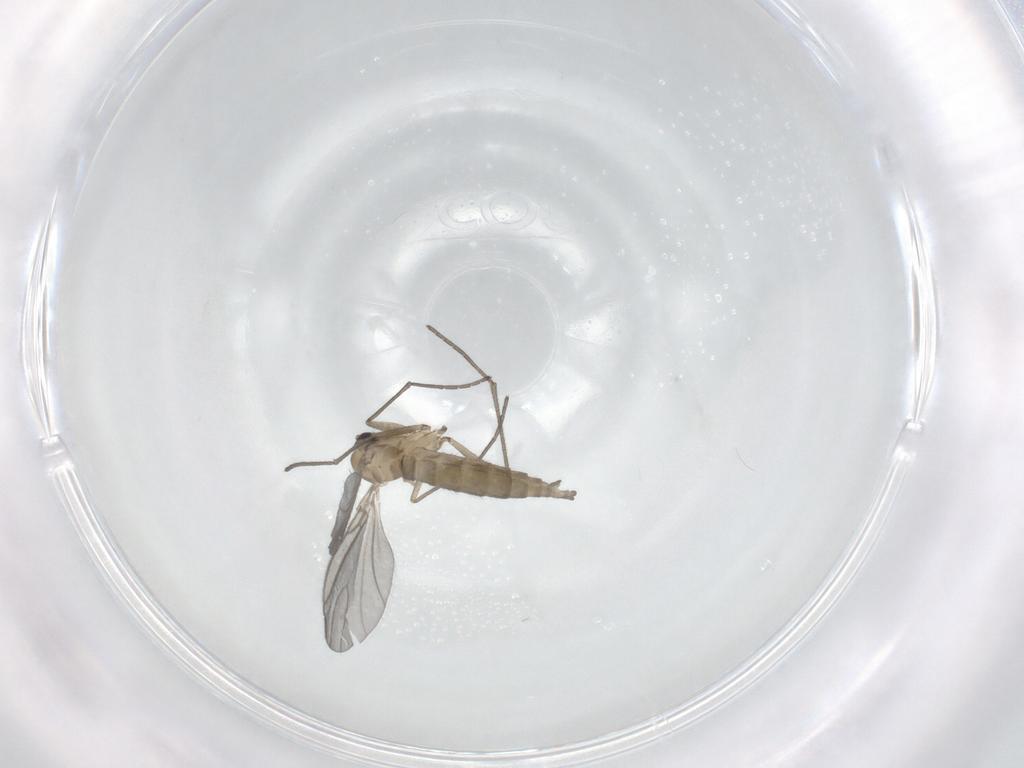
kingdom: Animalia
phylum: Arthropoda
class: Insecta
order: Diptera
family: Sciaridae
